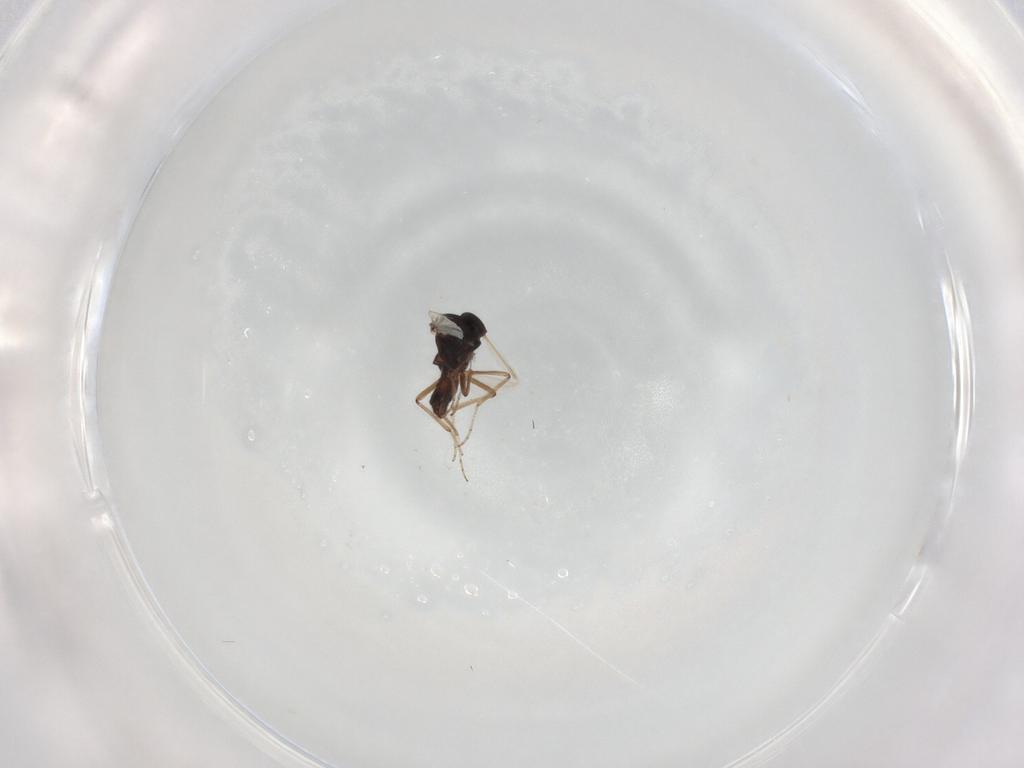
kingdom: Animalia
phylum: Arthropoda
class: Insecta
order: Diptera
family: Ceratopogonidae
